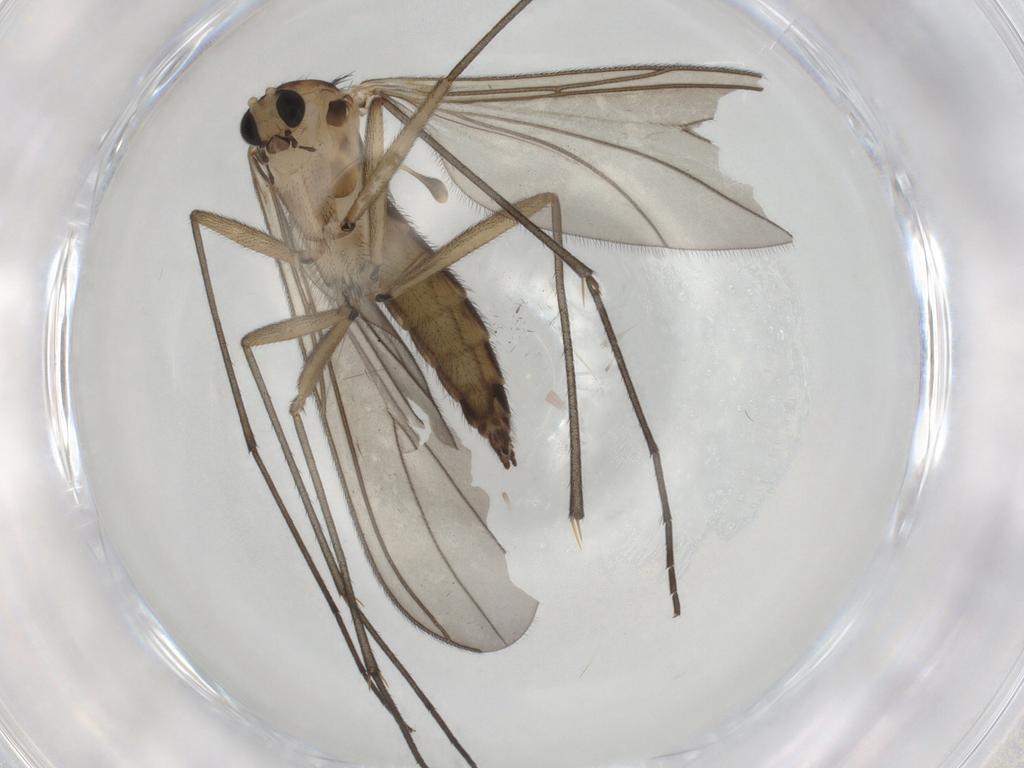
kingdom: Animalia
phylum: Arthropoda
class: Insecta
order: Diptera
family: Sciaridae
